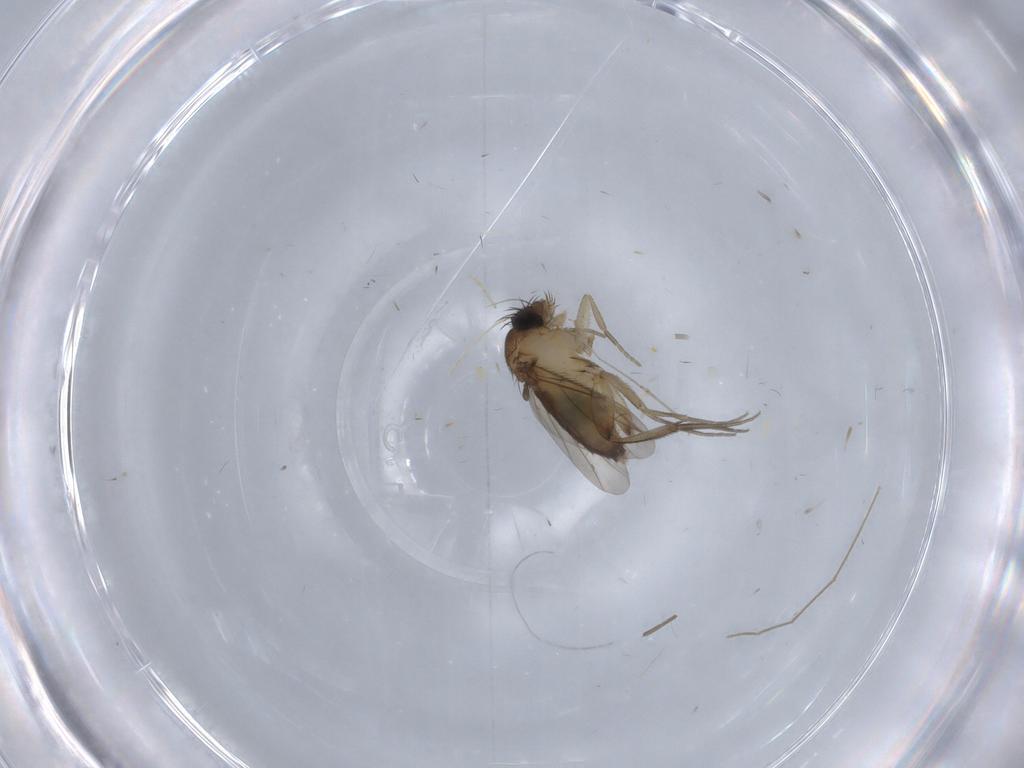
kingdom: Animalia
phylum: Arthropoda
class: Insecta
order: Diptera
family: Phoridae
